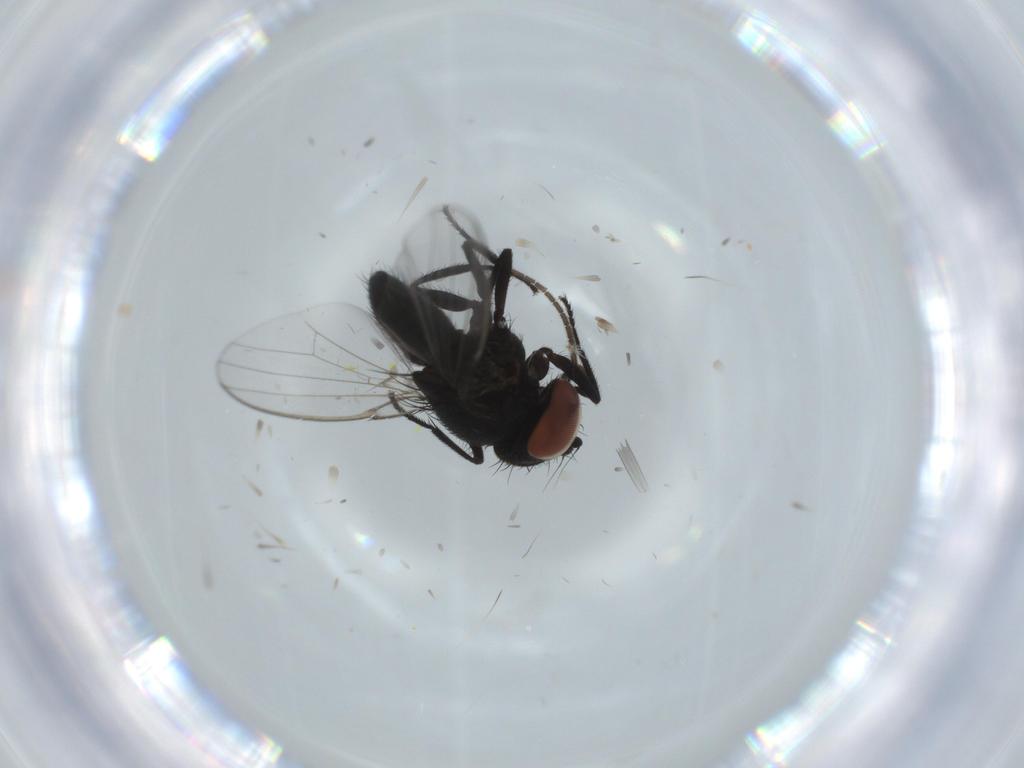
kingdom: Animalia
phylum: Arthropoda
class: Insecta
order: Diptera
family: Milichiidae
